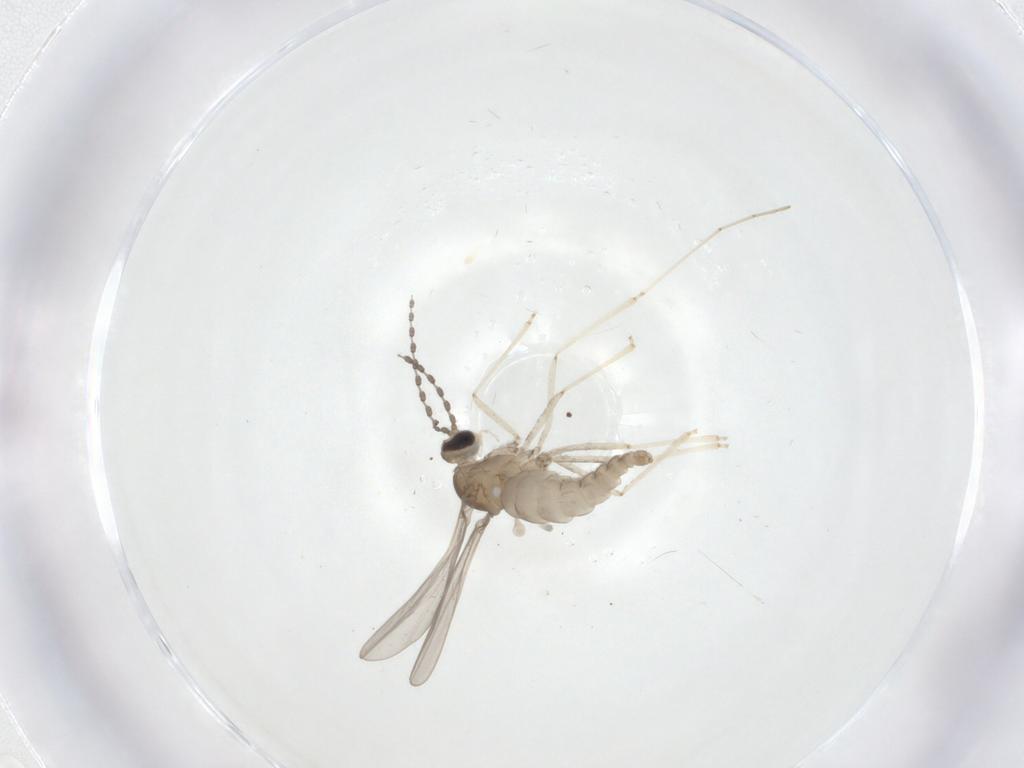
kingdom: Animalia
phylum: Arthropoda
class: Insecta
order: Diptera
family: Cecidomyiidae
